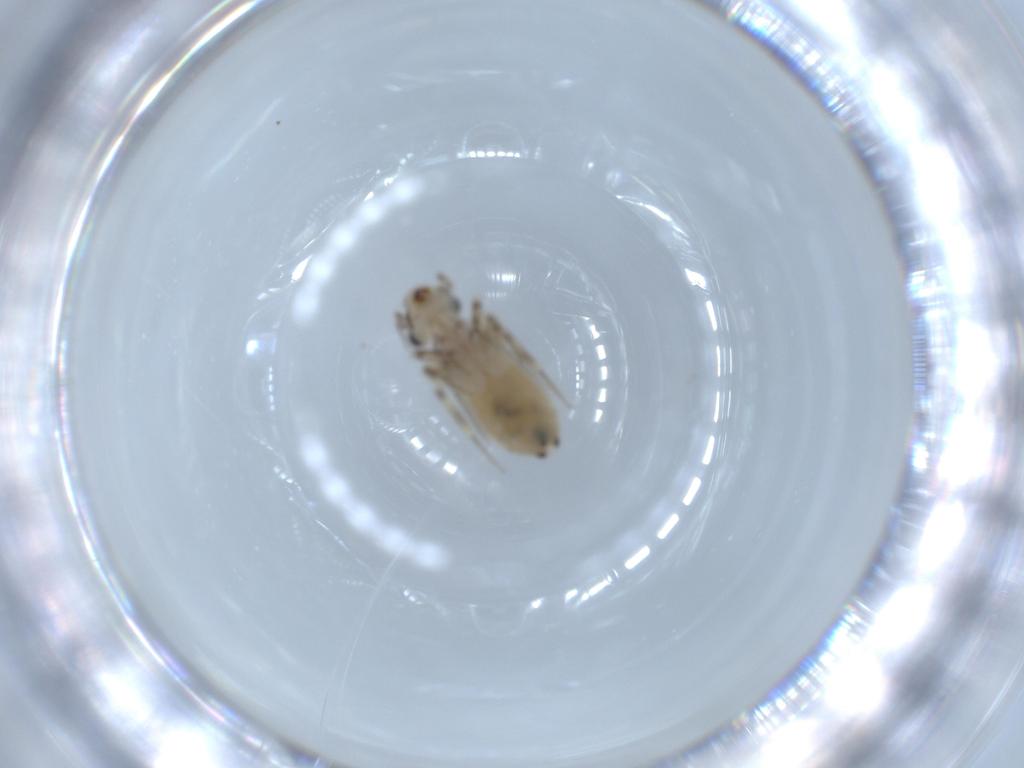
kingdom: Animalia
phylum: Arthropoda
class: Insecta
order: Psocodea
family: Lepidopsocidae
